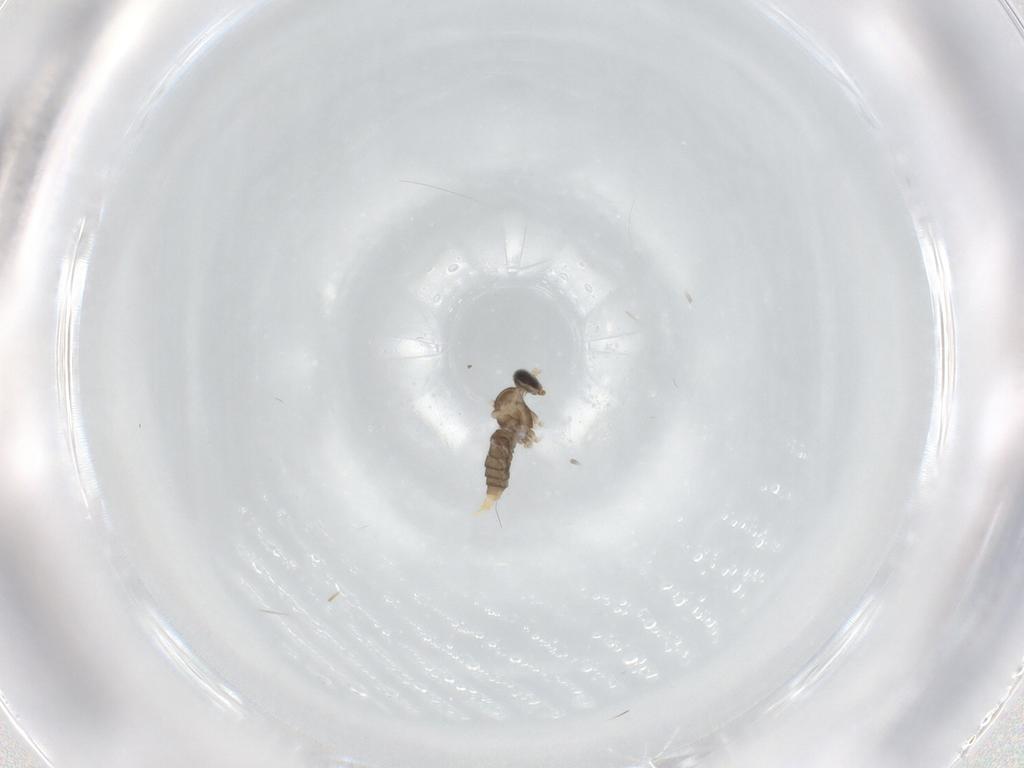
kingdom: Animalia
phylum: Arthropoda
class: Insecta
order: Diptera
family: Cecidomyiidae
